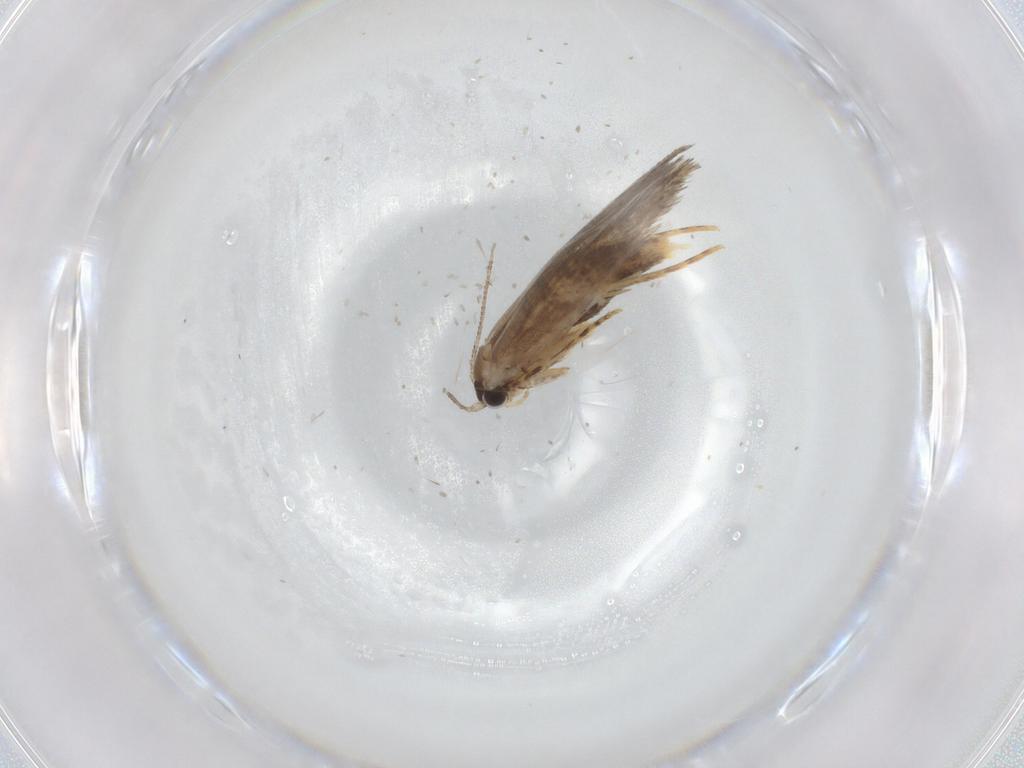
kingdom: Animalia
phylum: Arthropoda
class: Insecta
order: Lepidoptera
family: Tineidae
